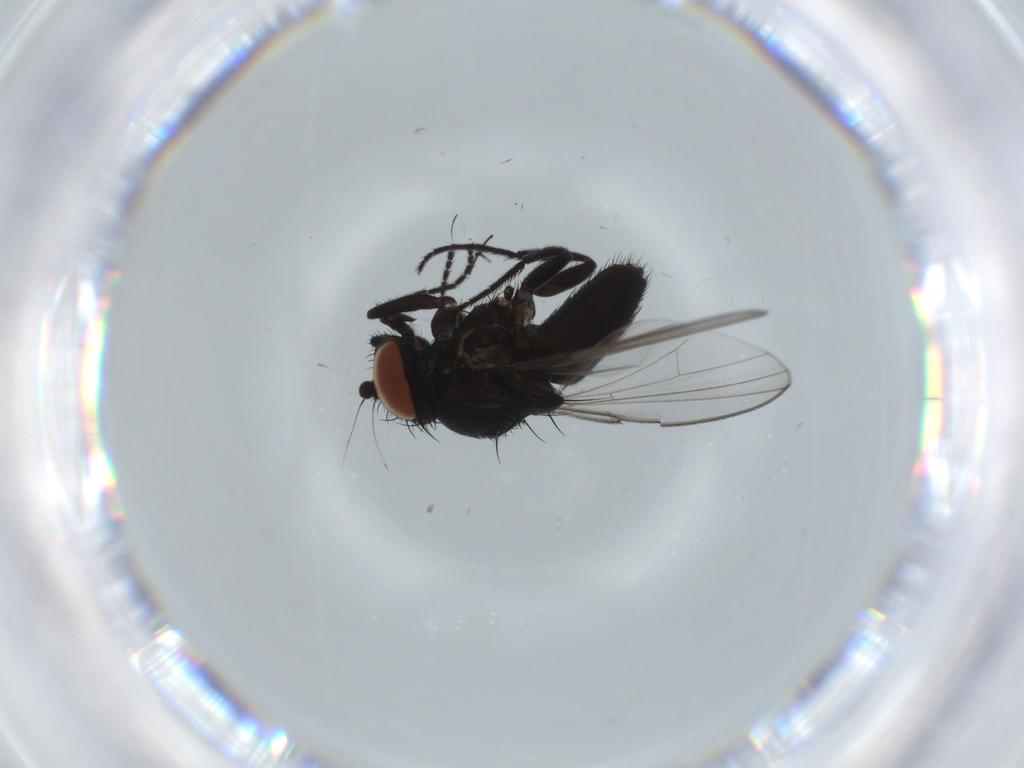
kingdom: Animalia
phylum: Arthropoda
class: Insecta
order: Diptera
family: Milichiidae
